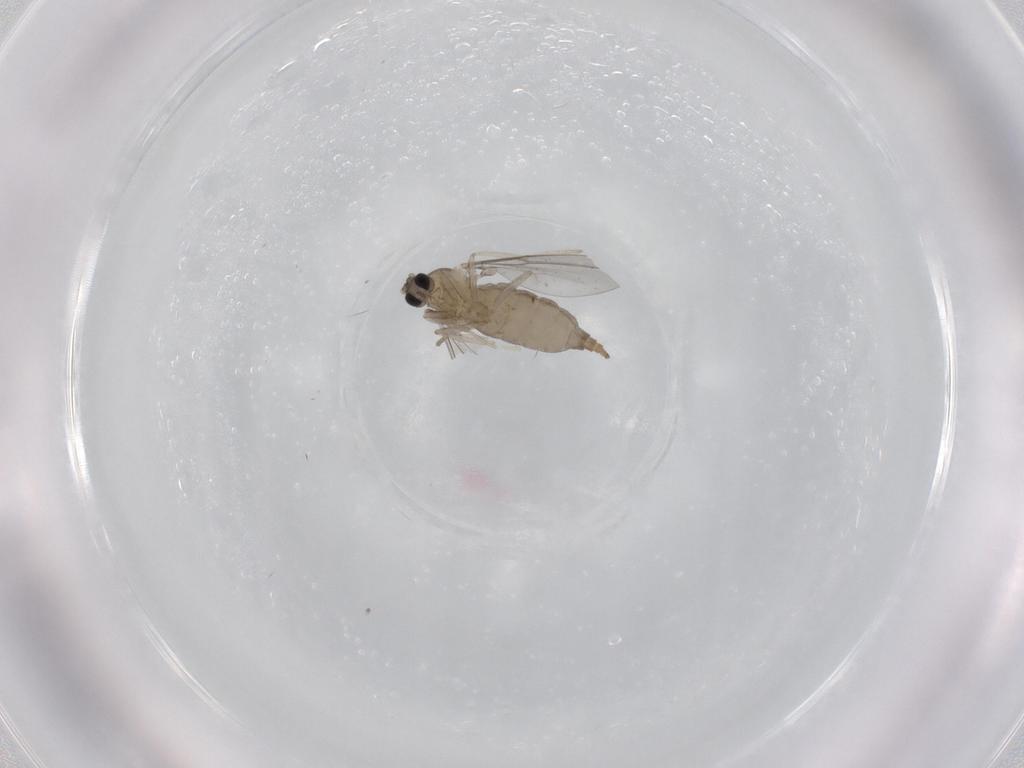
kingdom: Animalia
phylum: Arthropoda
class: Insecta
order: Diptera
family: Cecidomyiidae
